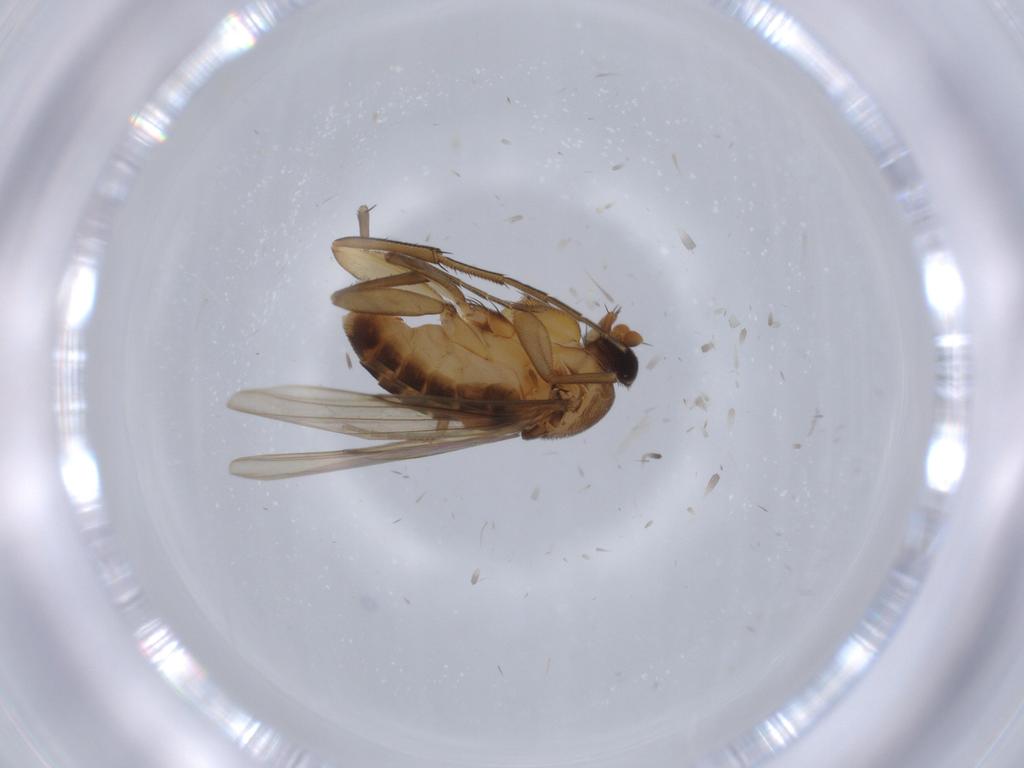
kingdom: Animalia
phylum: Arthropoda
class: Insecta
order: Diptera
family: Phoridae
